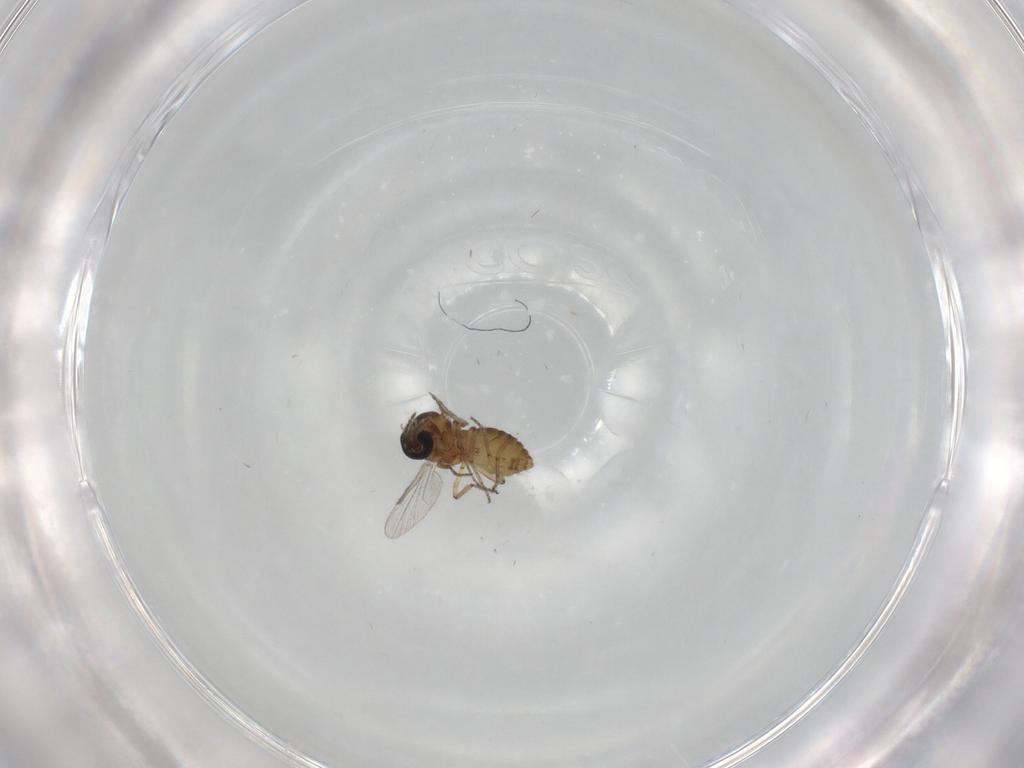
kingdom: Animalia
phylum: Arthropoda
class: Insecta
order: Diptera
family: Ceratopogonidae
